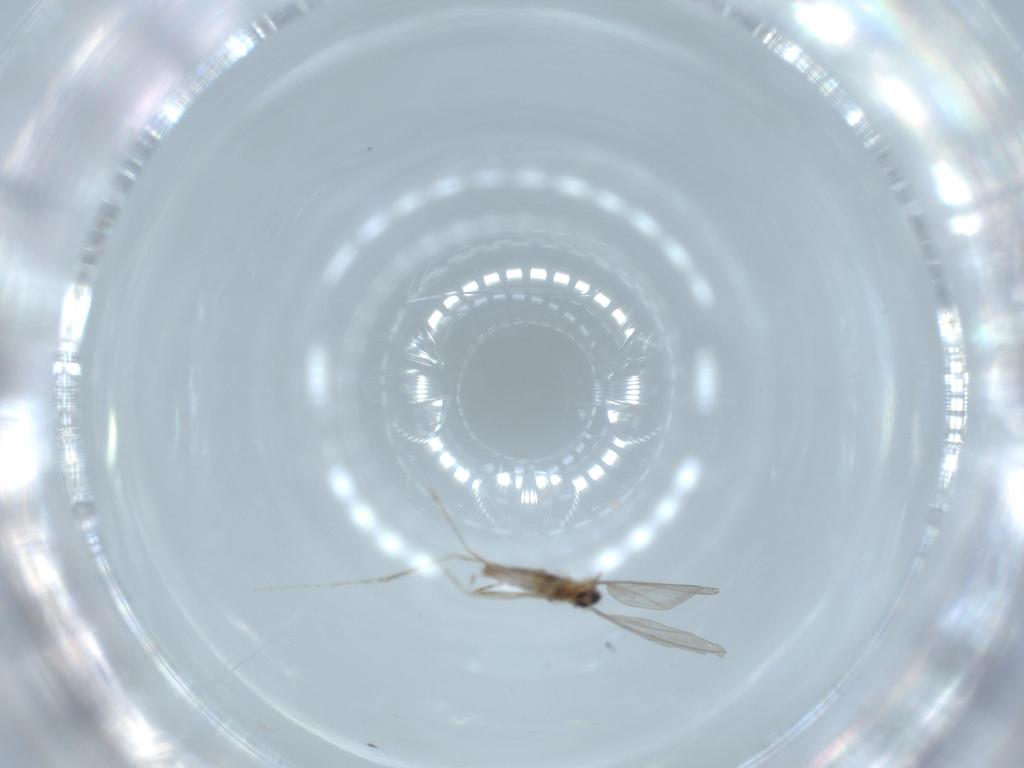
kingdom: Animalia
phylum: Arthropoda
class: Insecta
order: Diptera
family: Cecidomyiidae
